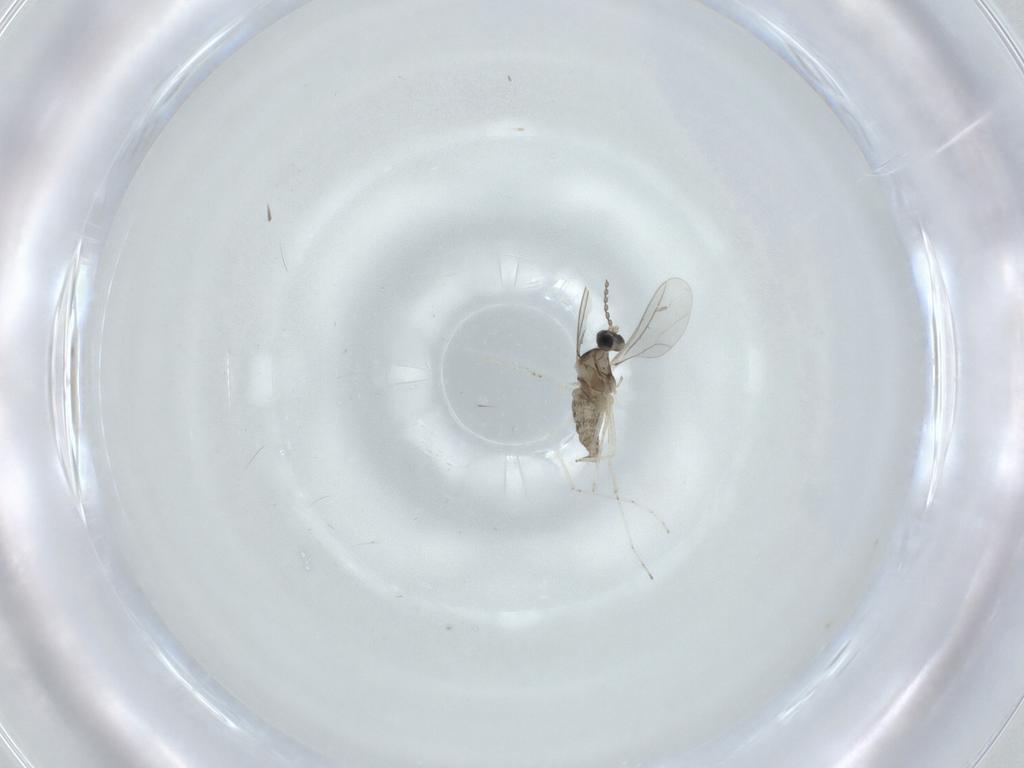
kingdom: Animalia
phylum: Arthropoda
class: Insecta
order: Diptera
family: Cecidomyiidae
